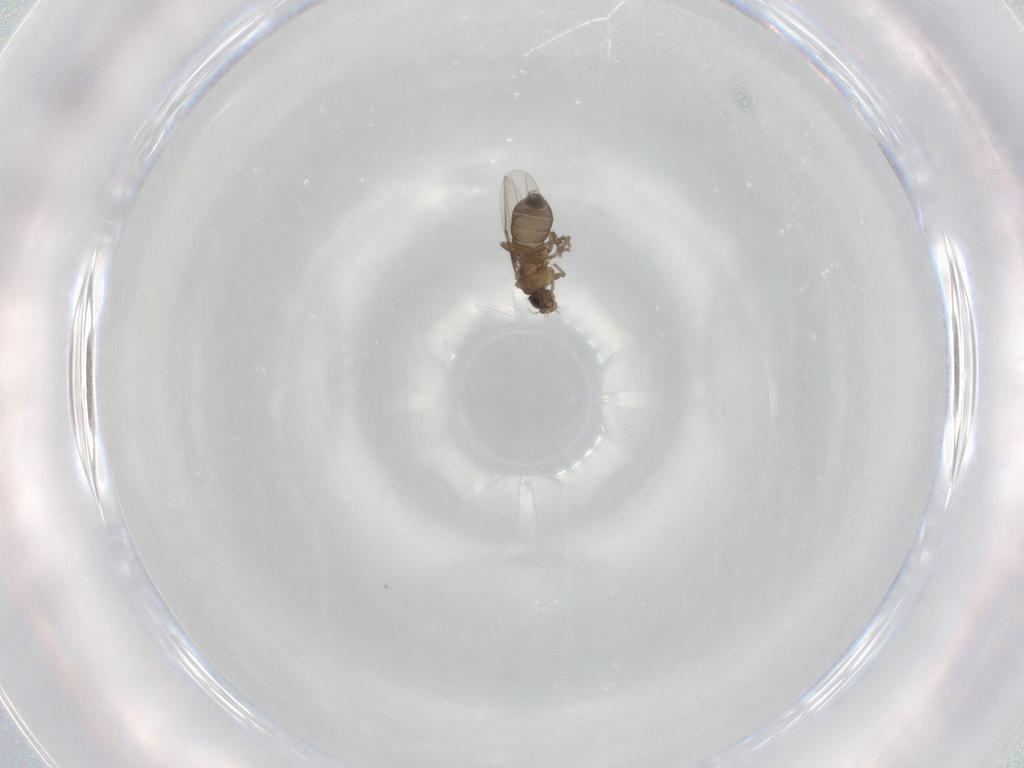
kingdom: Animalia
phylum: Arthropoda
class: Insecta
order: Diptera
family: Phoridae
